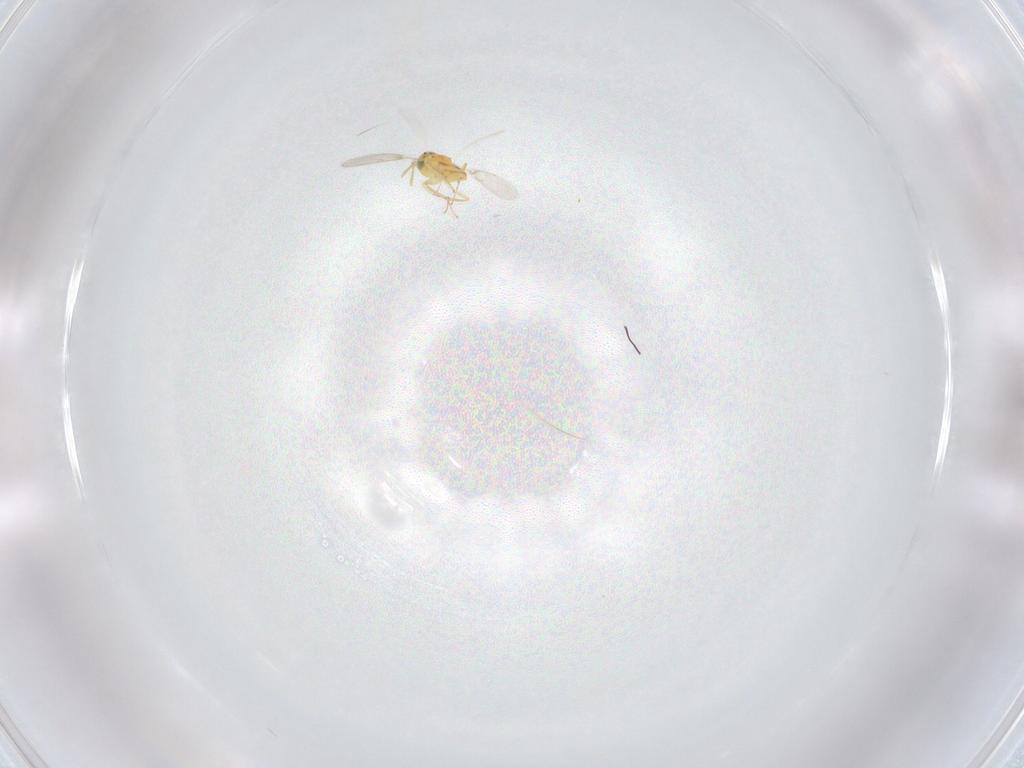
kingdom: Animalia
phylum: Arthropoda
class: Insecta
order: Hymenoptera
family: Aphelinidae
